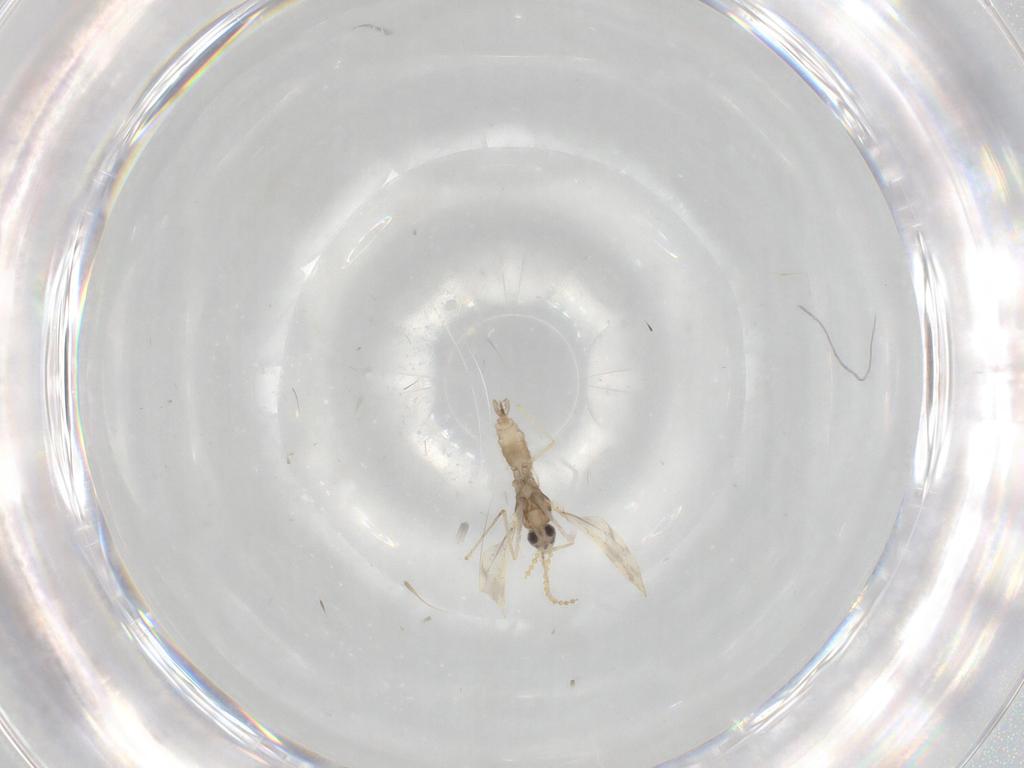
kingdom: Animalia
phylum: Arthropoda
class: Insecta
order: Diptera
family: Cecidomyiidae
